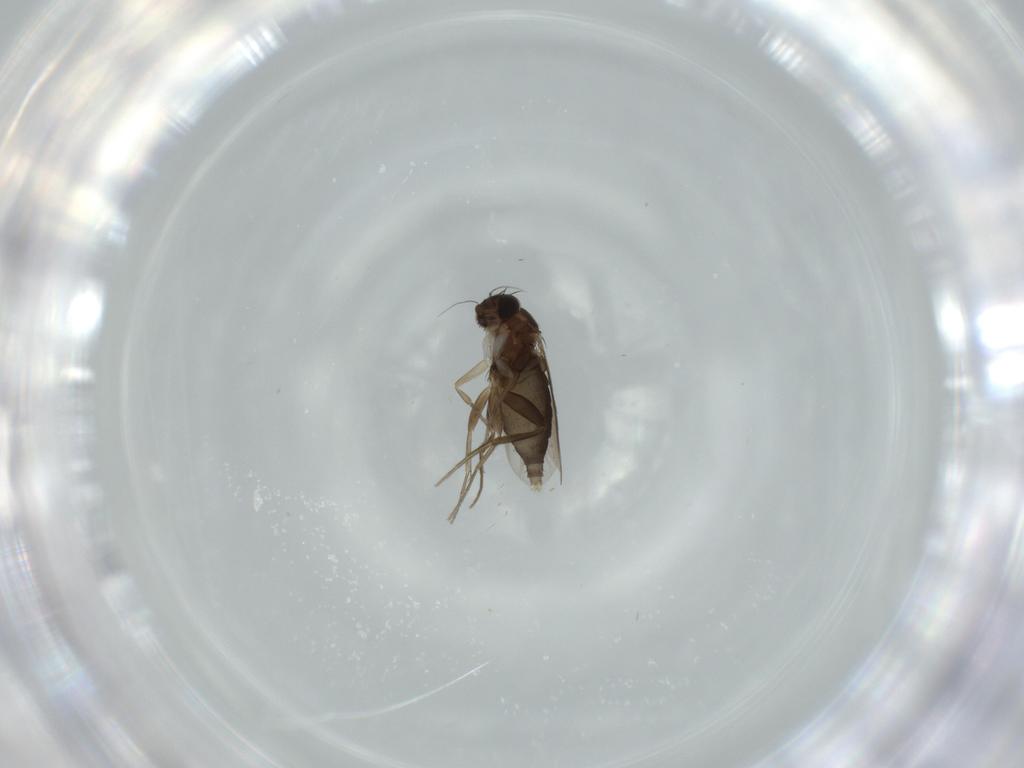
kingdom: Animalia
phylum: Arthropoda
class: Insecta
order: Diptera
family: Phoridae
